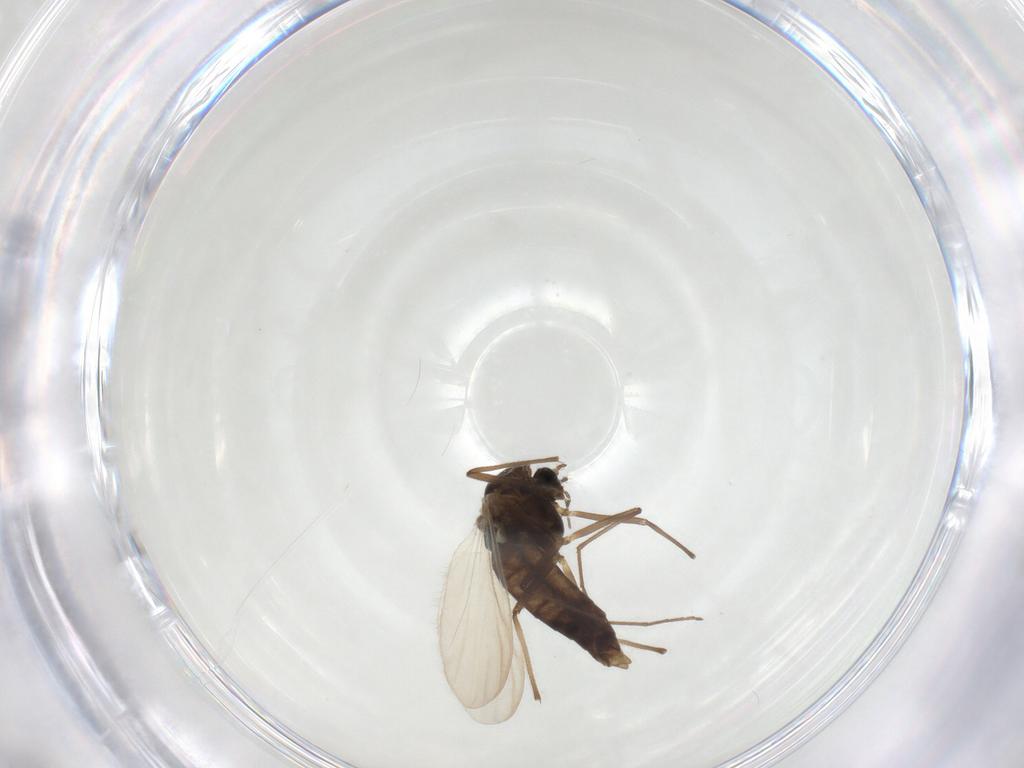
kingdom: Animalia
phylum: Arthropoda
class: Insecta
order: Diptera
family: Chironomidae
